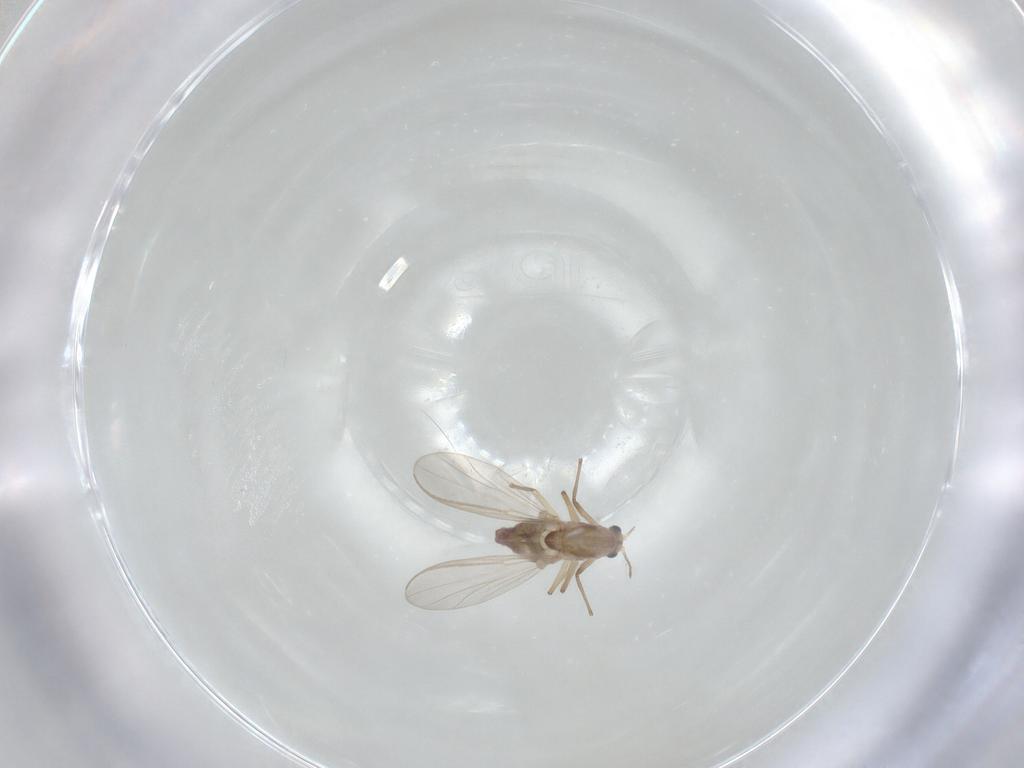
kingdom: Animalia
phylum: Arthropoda
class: Insecta
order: Diptera
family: Chironomidae
